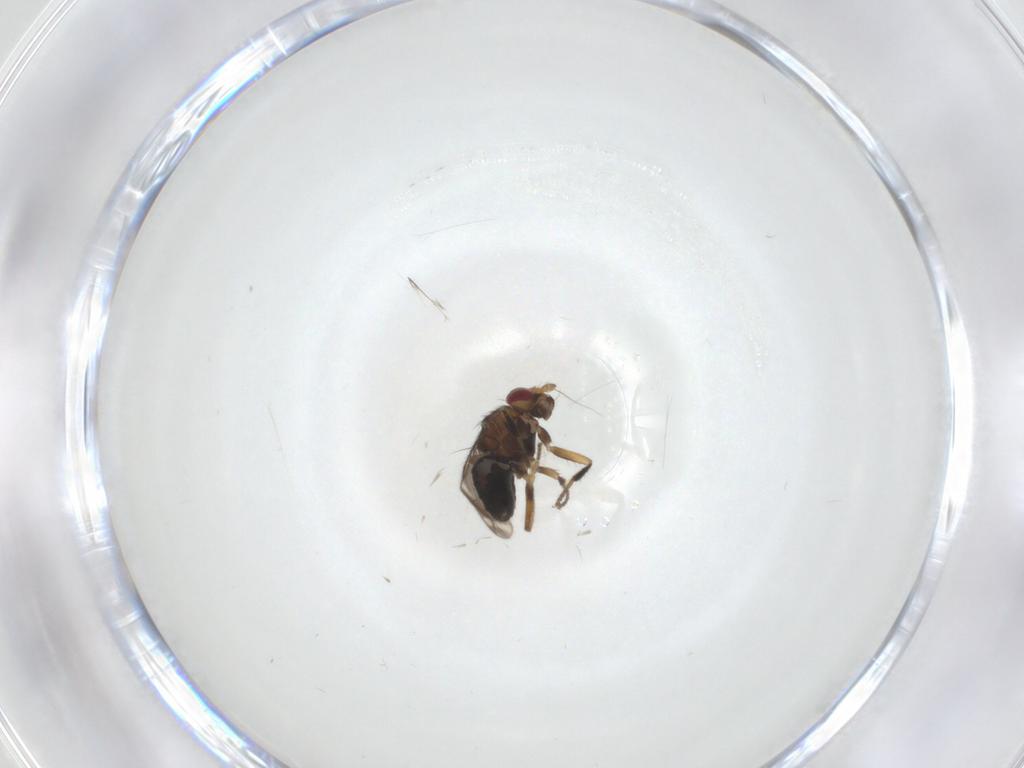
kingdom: Animalia
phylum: Arthropoda
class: Insecta
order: Diptera
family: Sphaeroceridae
